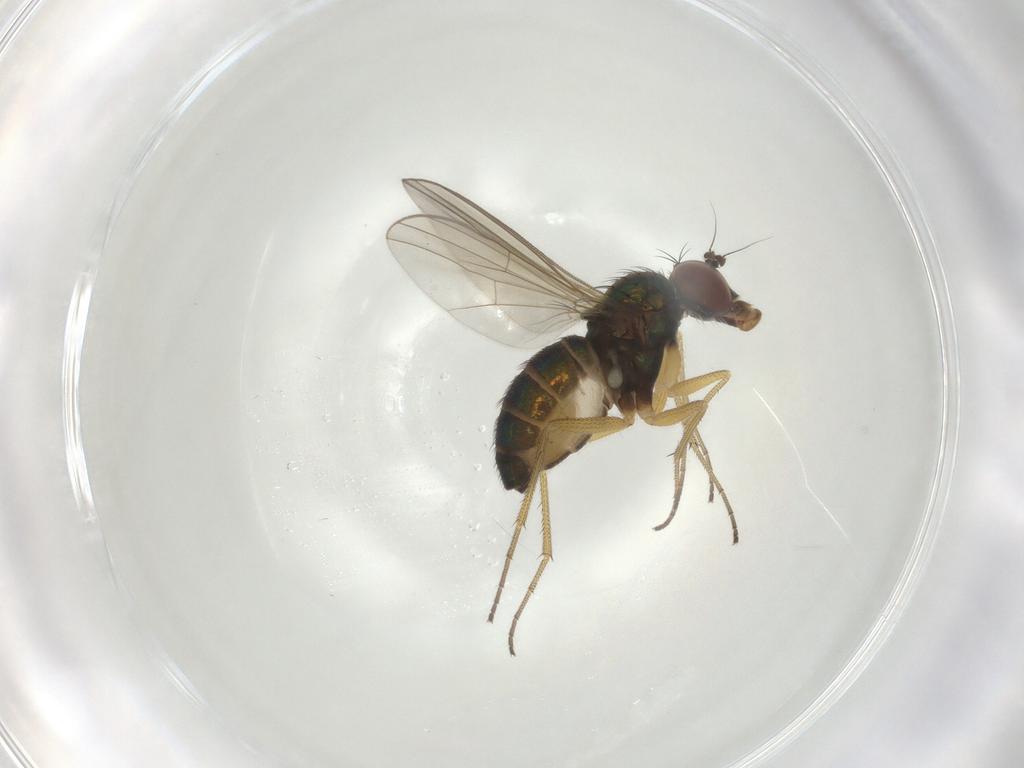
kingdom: Animalia
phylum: Arthropoda
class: Insecta
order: Diptera
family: Dolichopodidae
